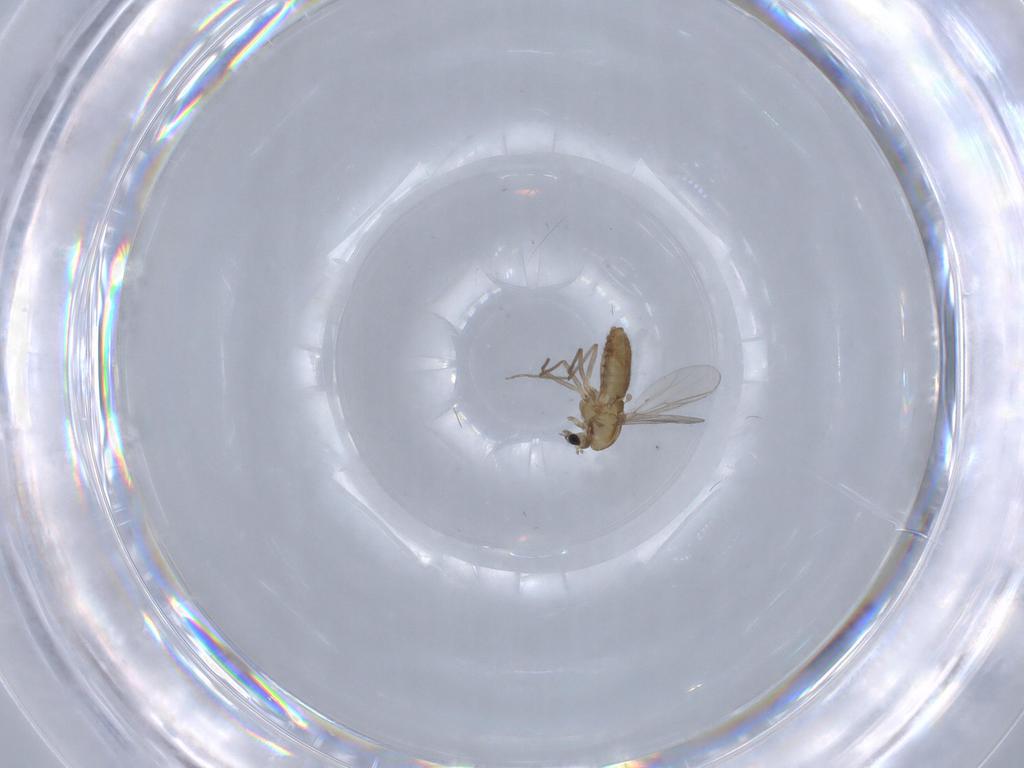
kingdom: Animalia
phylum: Arthropoda
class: Insecta
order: Diptera
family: Chironomidae
